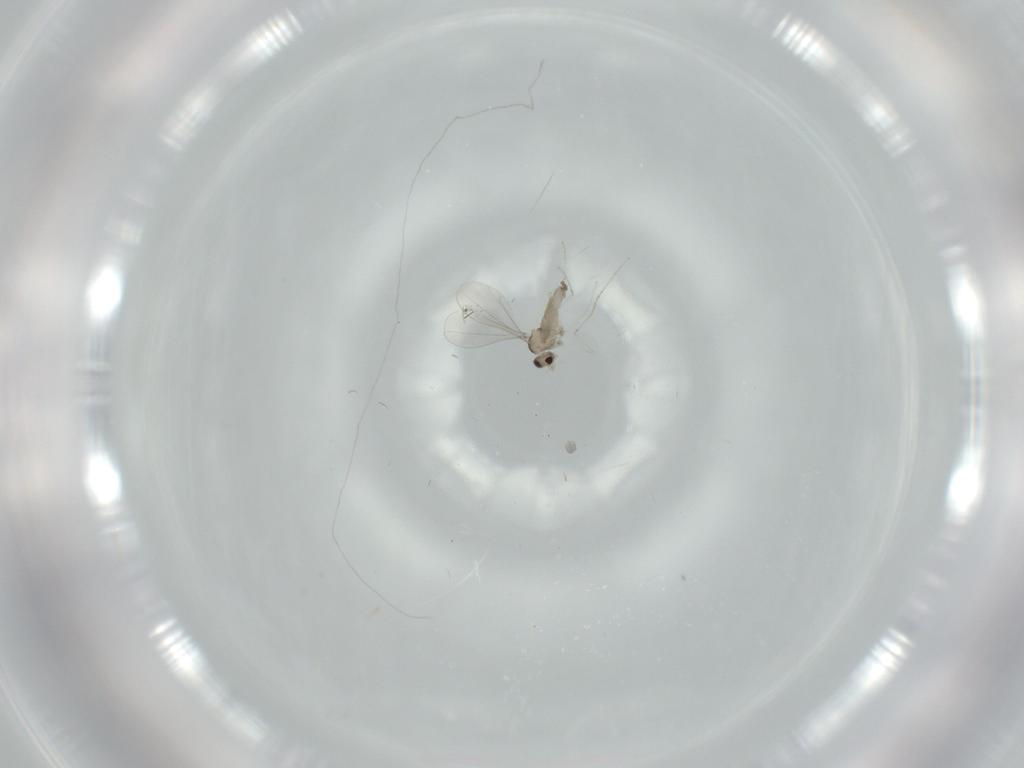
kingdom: Animalia
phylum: Arthropoda
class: Insecta
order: Diptera
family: Cecidomyiidae
